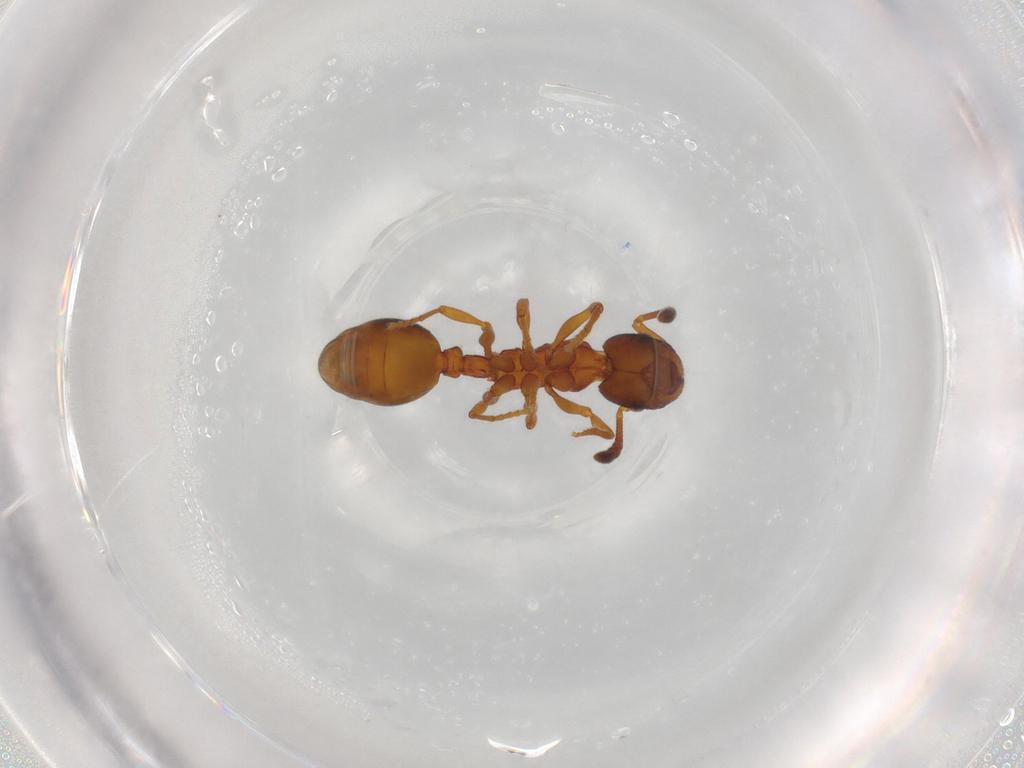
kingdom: Animalia
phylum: Arthropoda
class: Insecta
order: Hymenoptera
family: Formicidae
